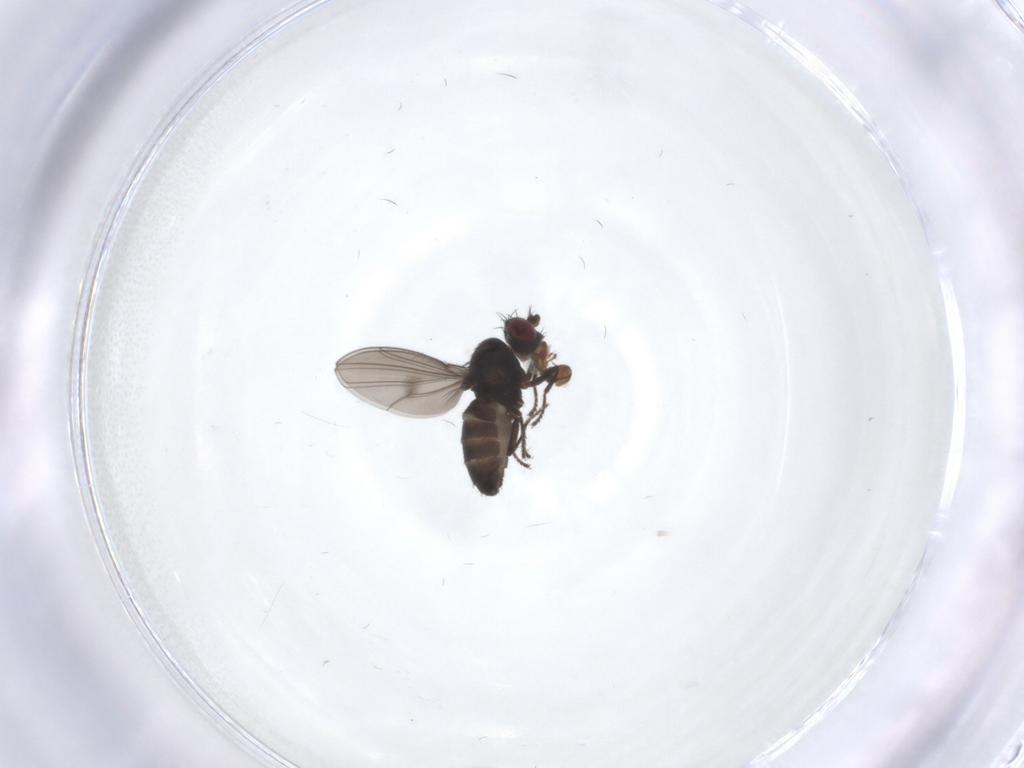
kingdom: Animalia
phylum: Arthropoda
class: Insecta
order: Diptera
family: Ephydridae
